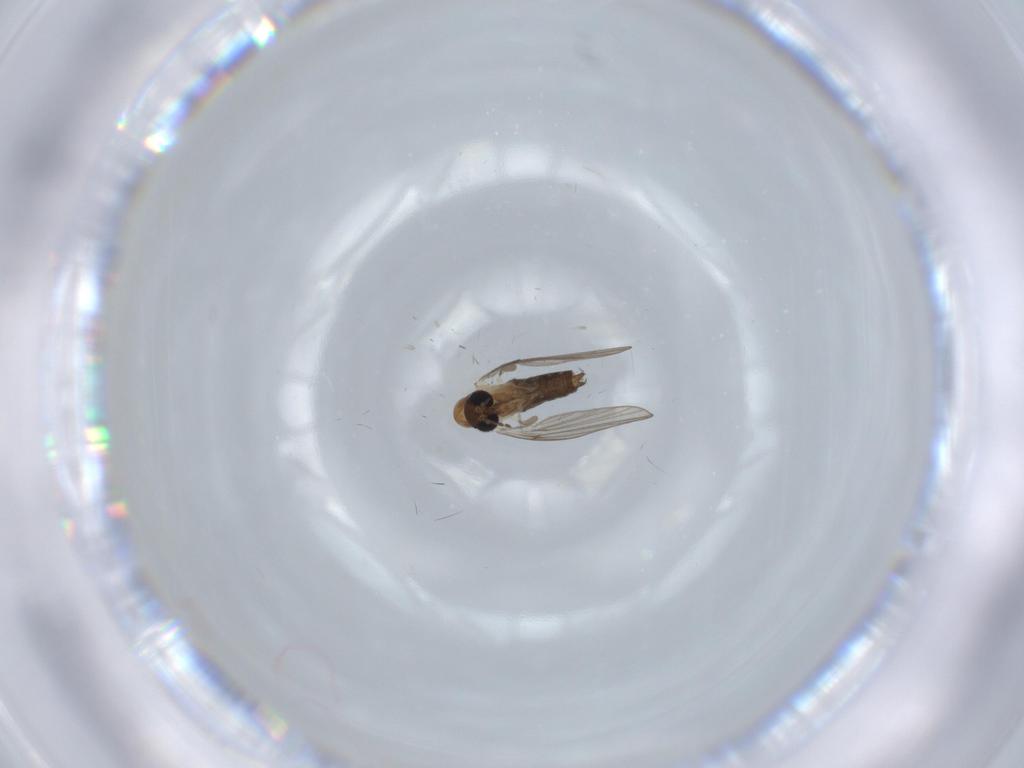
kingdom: Animalia
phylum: Arthropoda
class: Insecta
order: Diptera
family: Psychodidae
